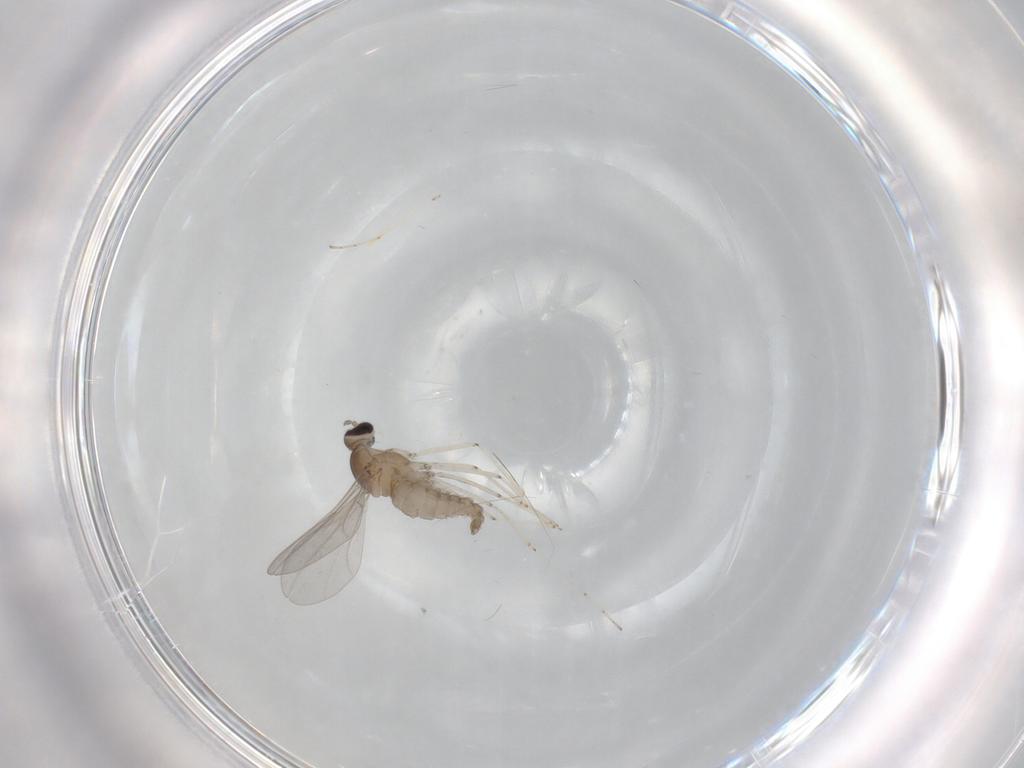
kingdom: Animalia
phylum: Arthropoda
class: Insecta
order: Diptera
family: Cecidomyiidae
